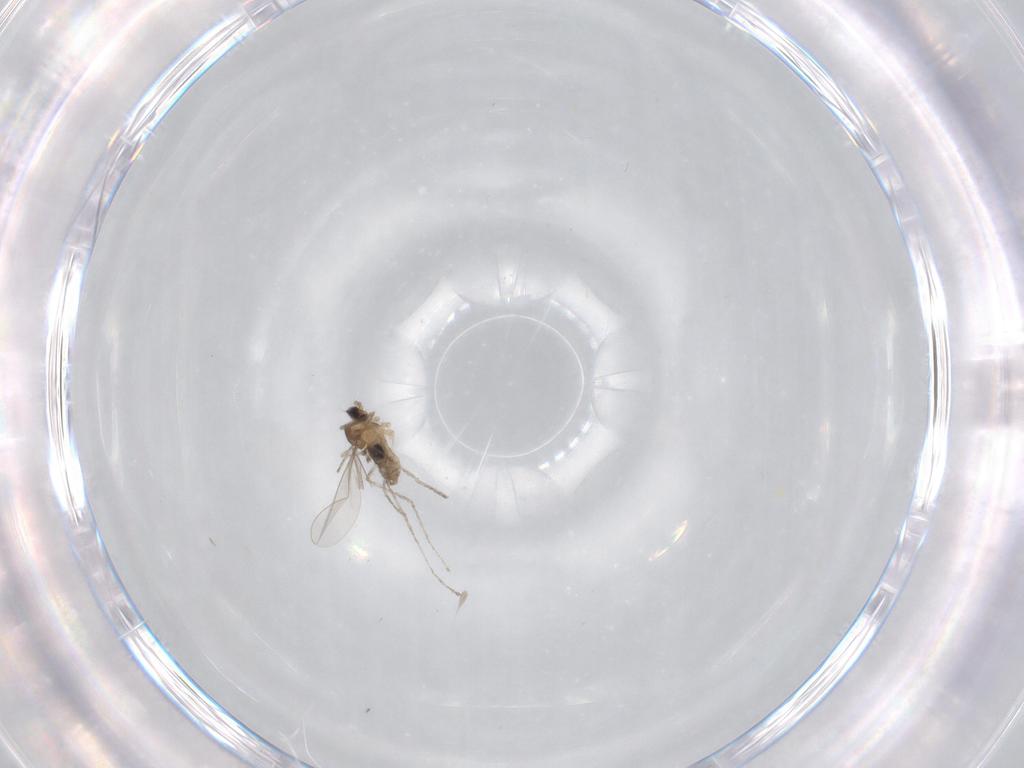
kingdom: Animalia
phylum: Arthropoda
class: Insecta
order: Diptera
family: Cecidomyiidae
